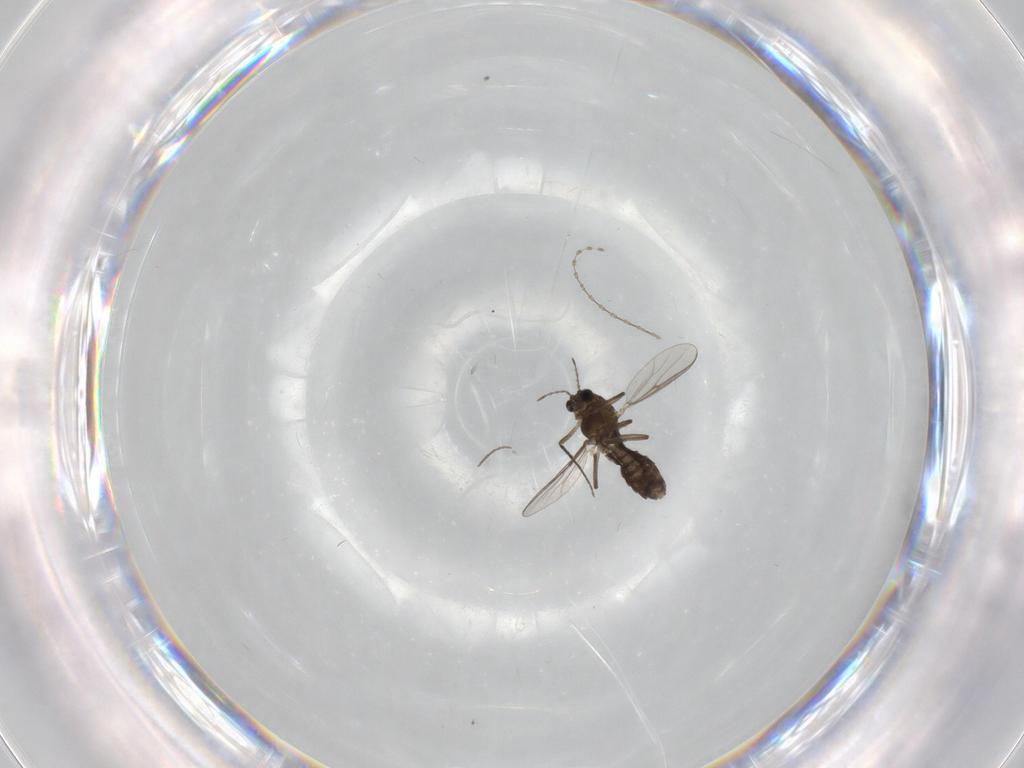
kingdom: Animalia
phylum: Arthropoda
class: Insecta
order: Diptera
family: Chironomidae
